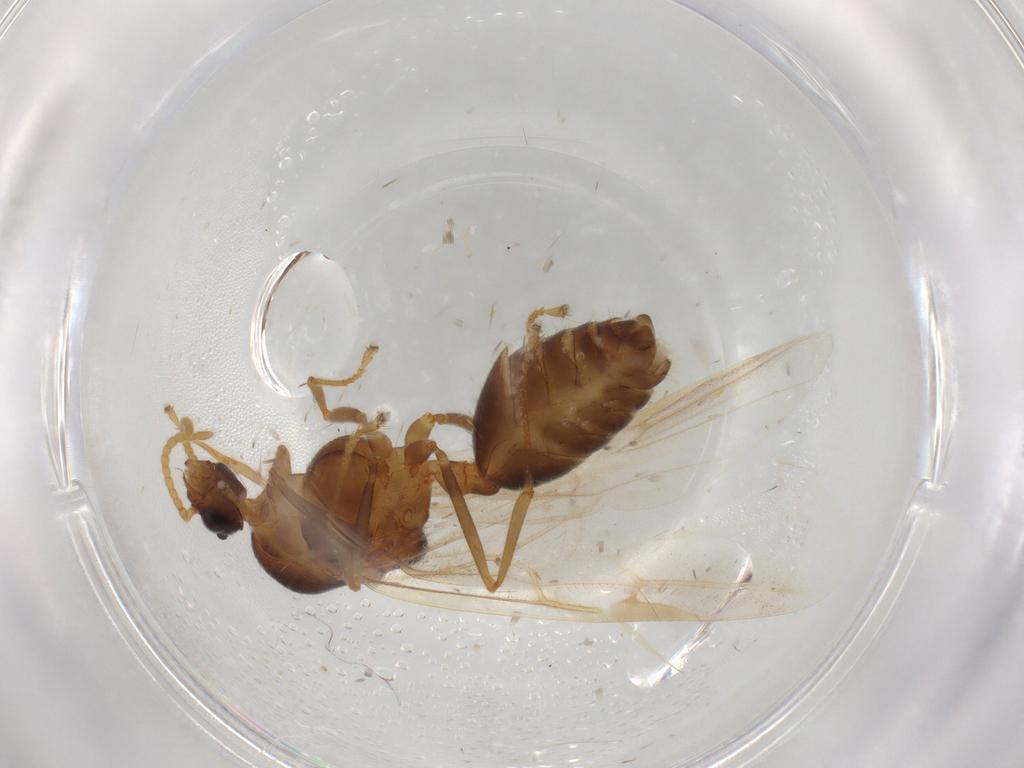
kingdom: Animalia
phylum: Arthropoda
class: Insecta
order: Hymenoptera
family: Formicidae
